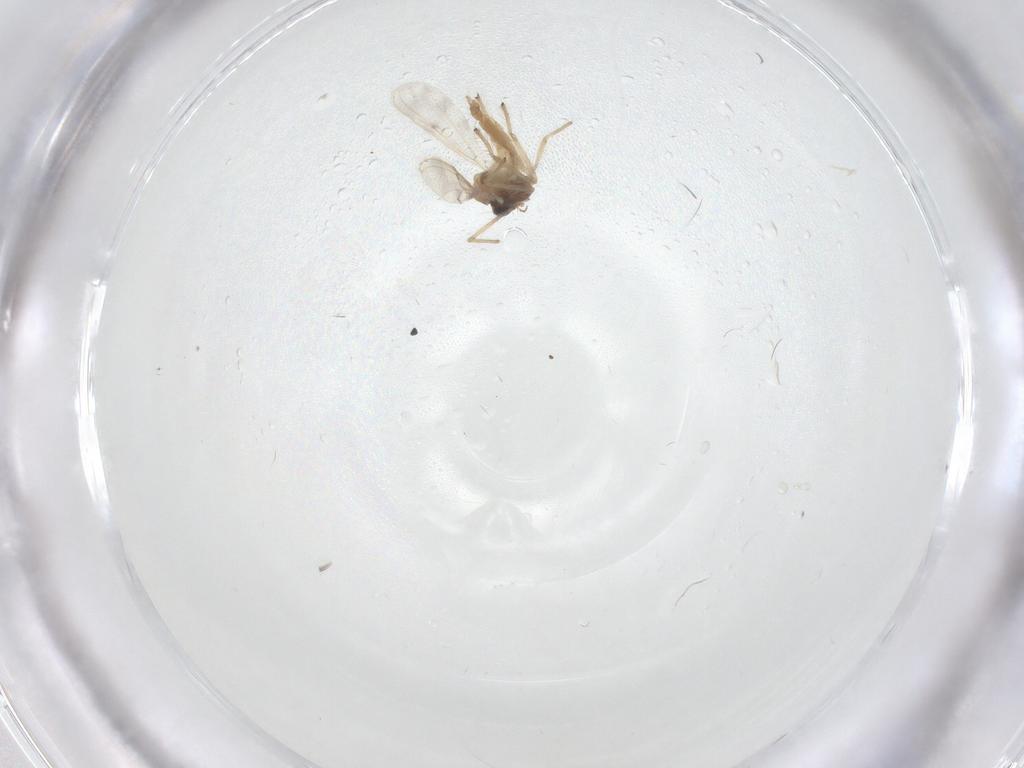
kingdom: Animalia
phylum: Arthropoda
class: Insecta
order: Diptera
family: Chironomidae
